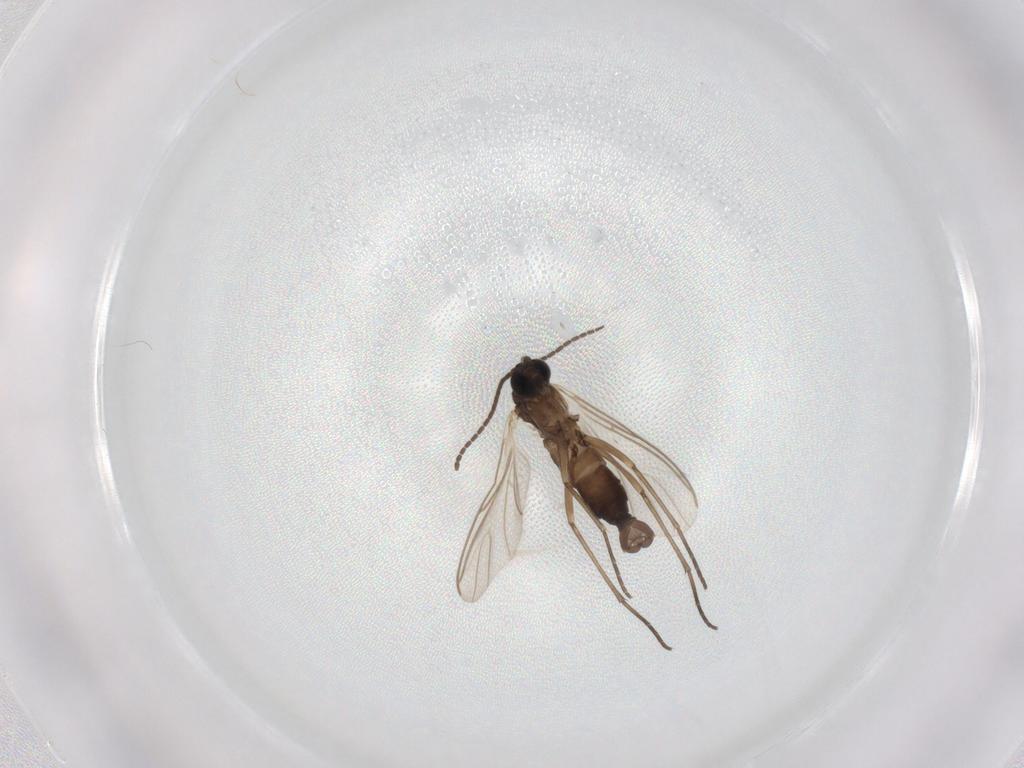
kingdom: Animalia
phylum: Arthropoda
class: Insecta
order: Diptera
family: Sciaridae
